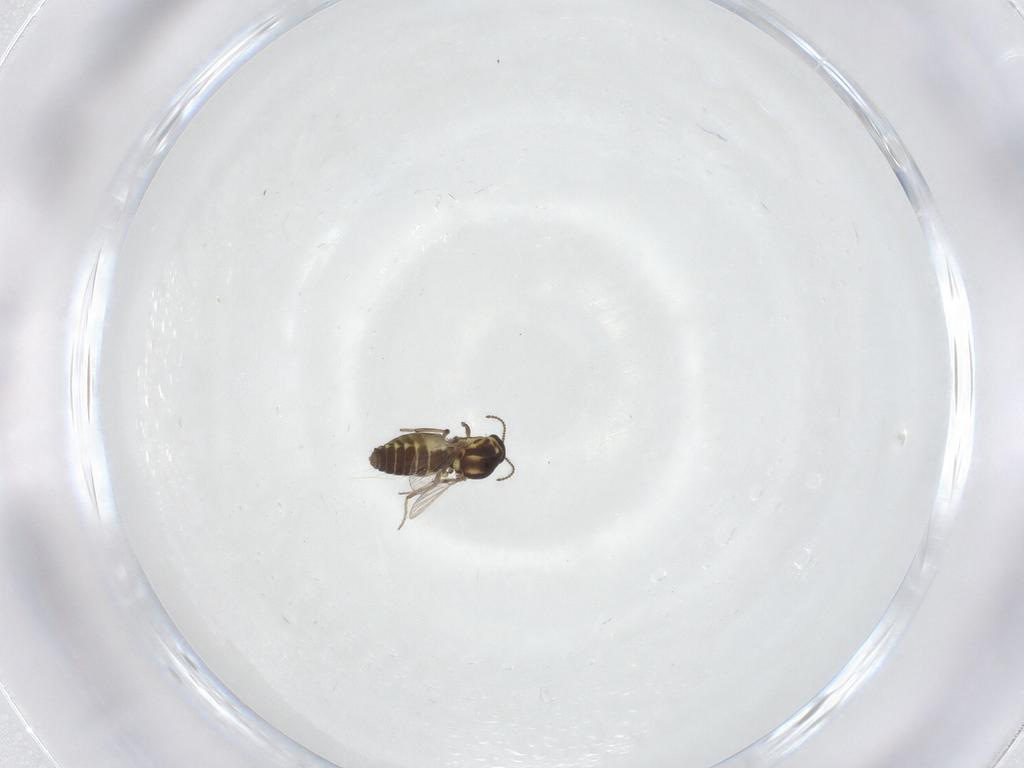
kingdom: Animalia
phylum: Arthropoda
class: Insecta
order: Diptera
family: Ceratopogonidae
